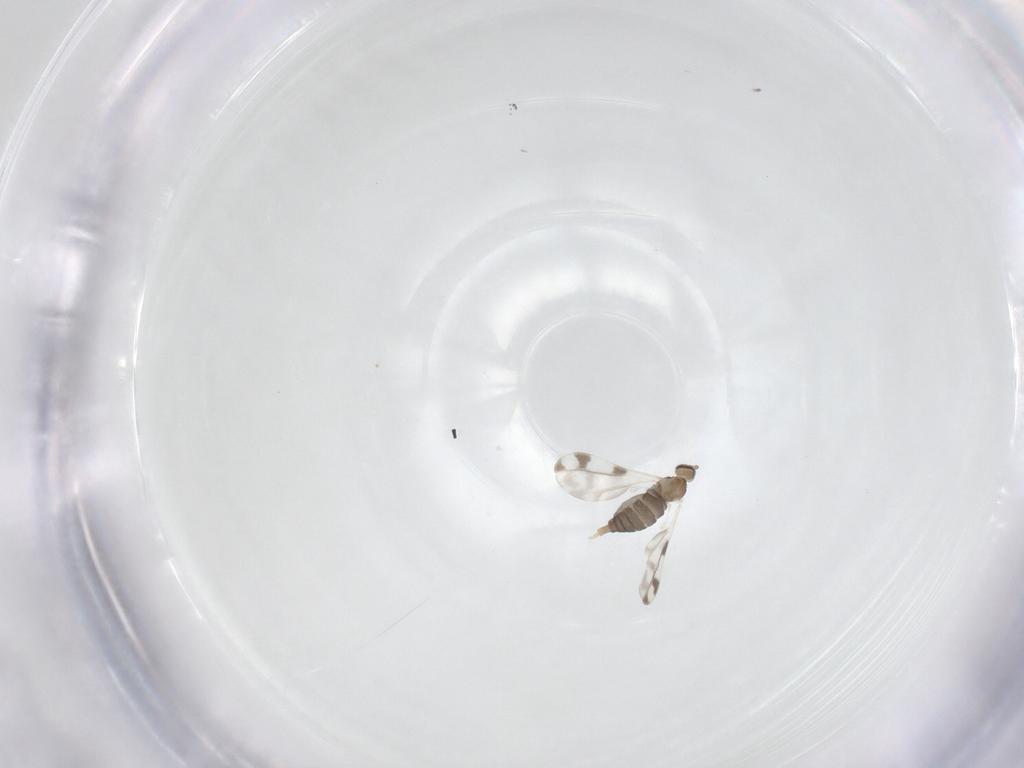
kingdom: Animalia
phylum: Arthropoda
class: Insecta
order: Diptera
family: Cecidomyiidae
